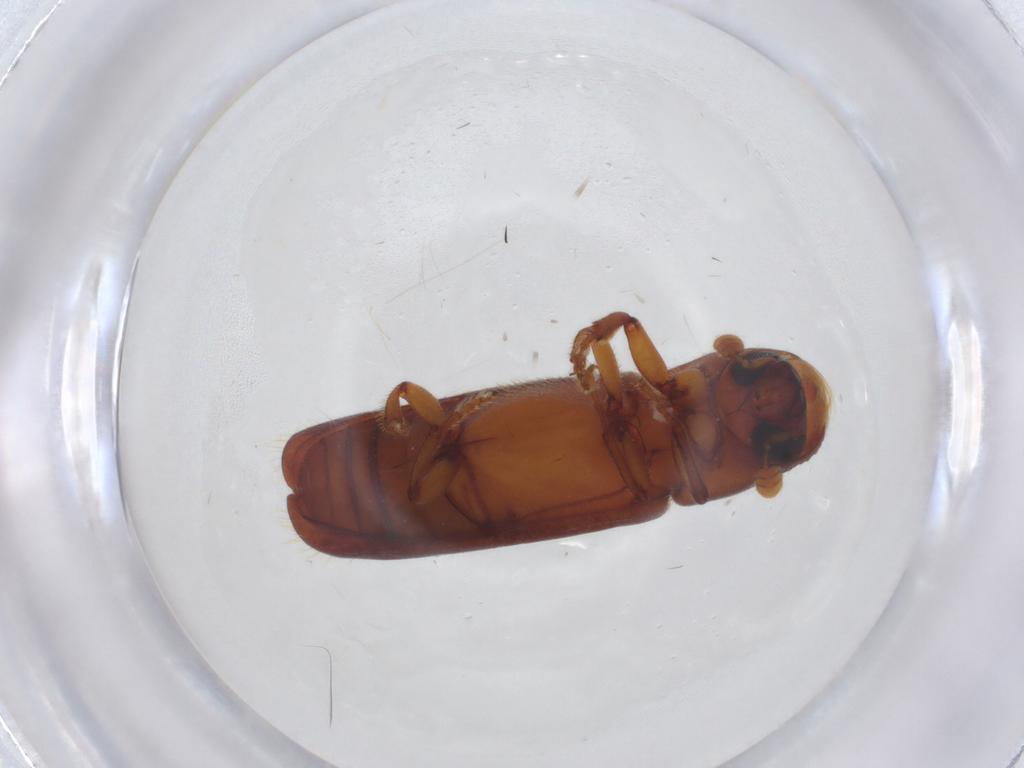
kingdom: Animalia
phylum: Arthropoda
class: Insecta
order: Coleoptera
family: Curculionidae
